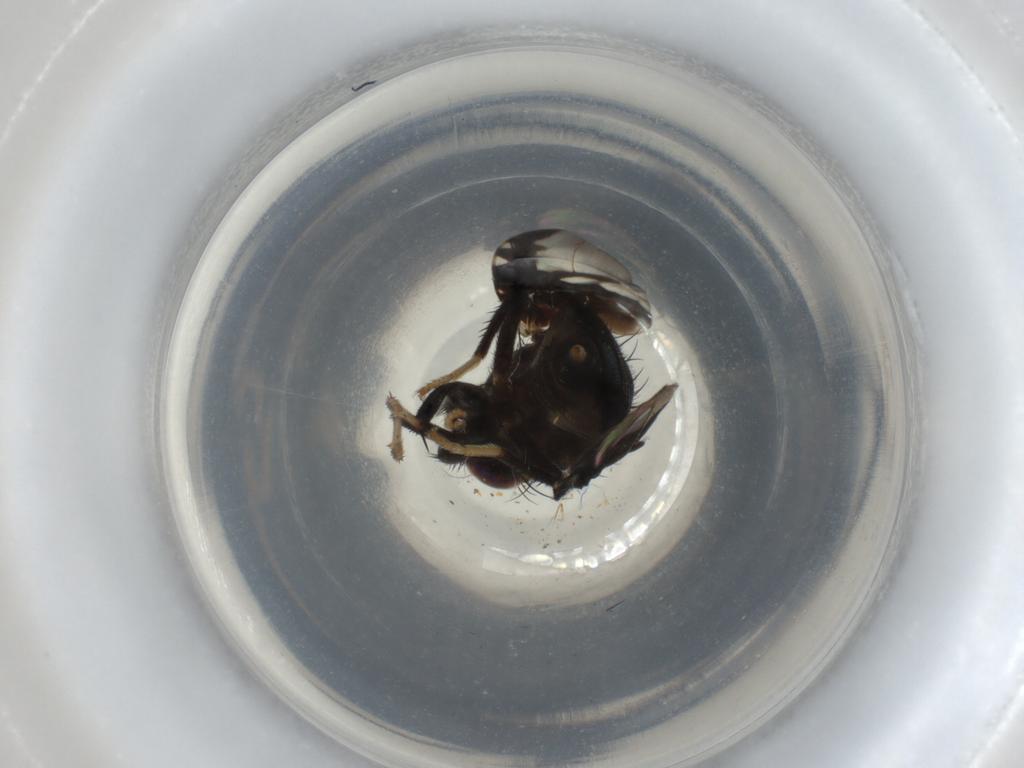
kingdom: Animalia
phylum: Arthropoda
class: Insecta
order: Diptera
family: Tephritidae
